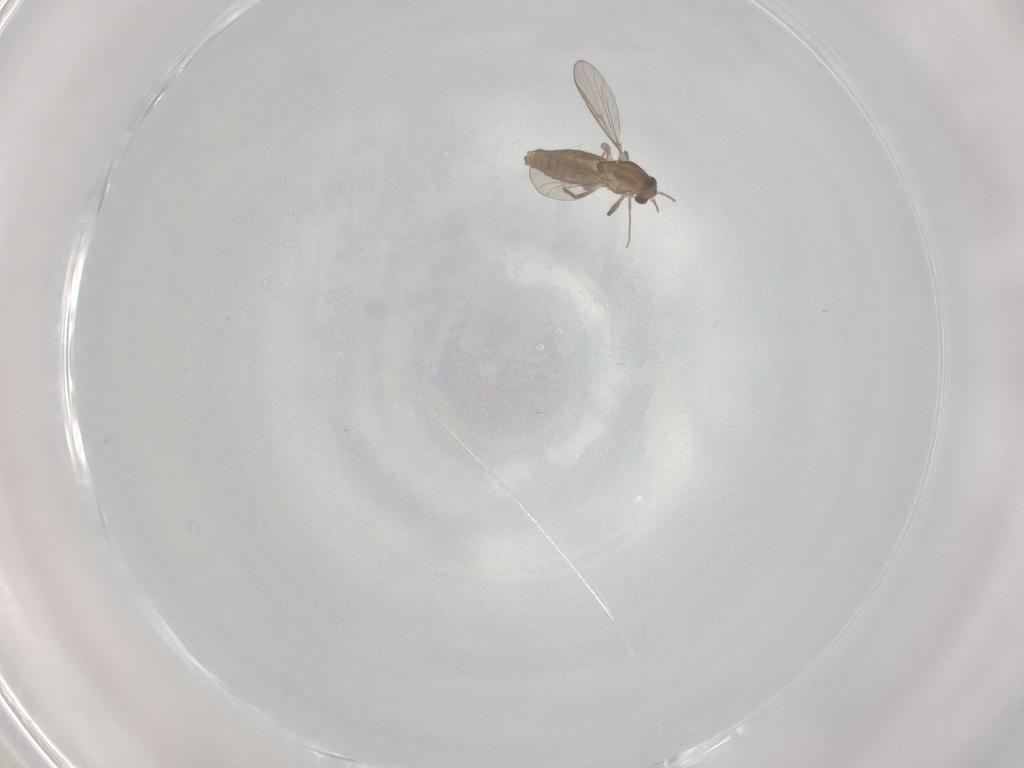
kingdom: Animalia
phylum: Arthropoda
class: Insecta
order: Diptera
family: Chironomidae
